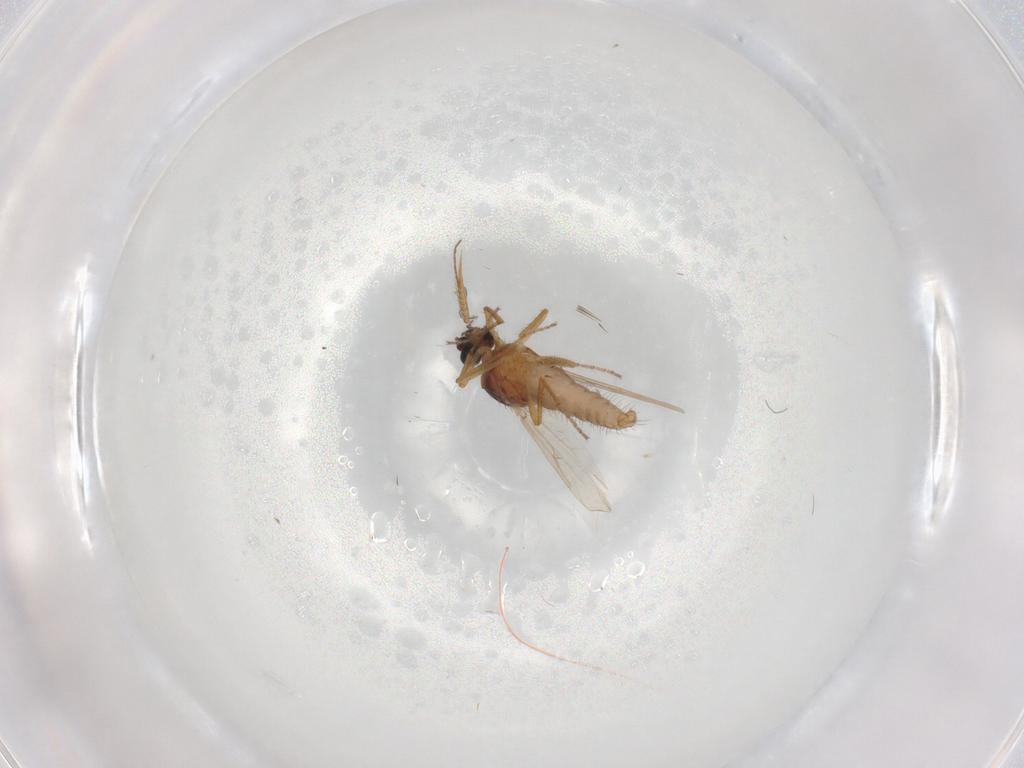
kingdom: Animalia
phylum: Arthropoda
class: Insecta
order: Diptera
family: Ceratopogonidae
